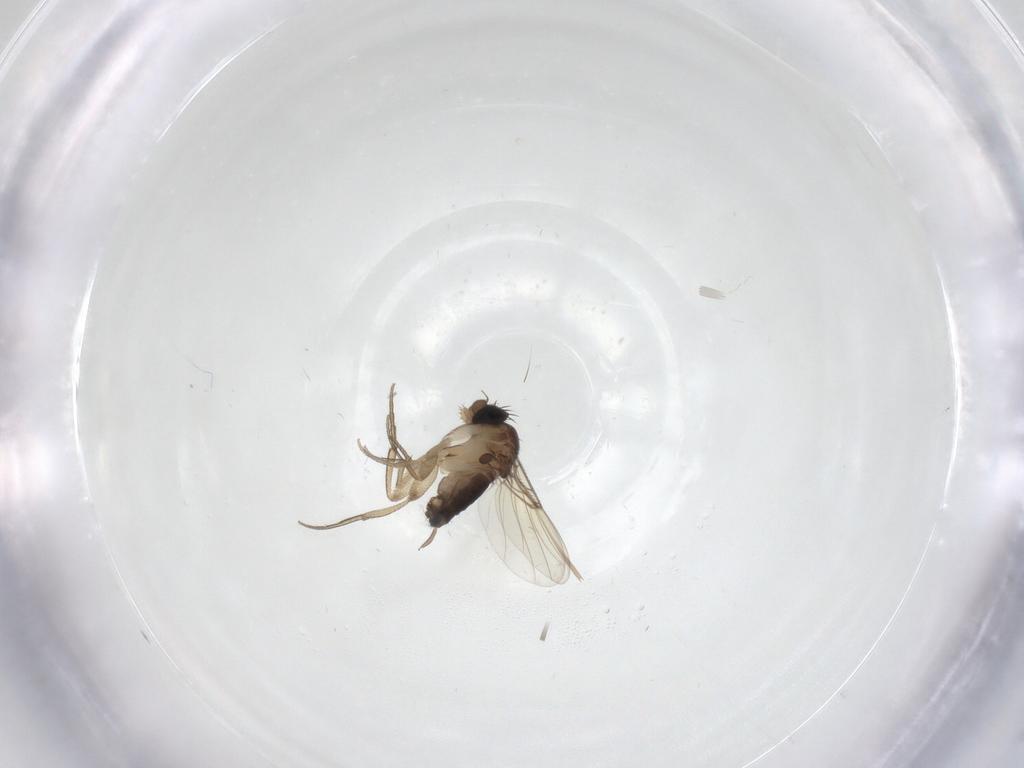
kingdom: Animalia
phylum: Arthropoda
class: Insecta
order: Diptera
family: Cecidomyiidae
